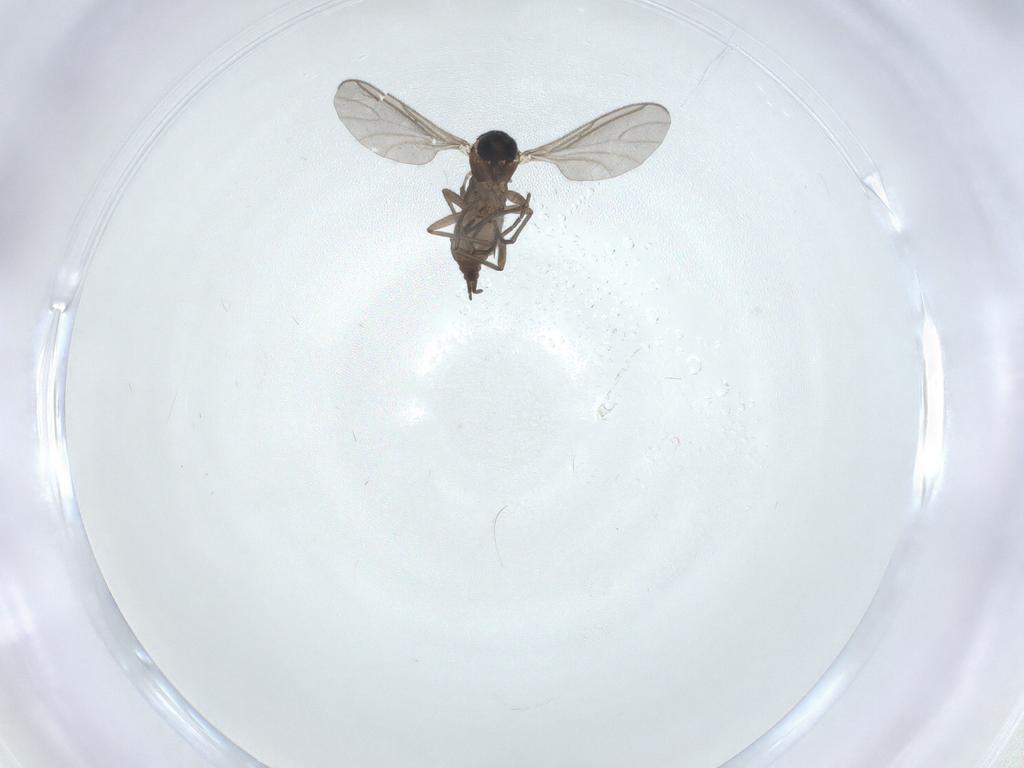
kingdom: Animalia
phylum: Arthropoda
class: Insecta
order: Diptera
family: Sciaridae
